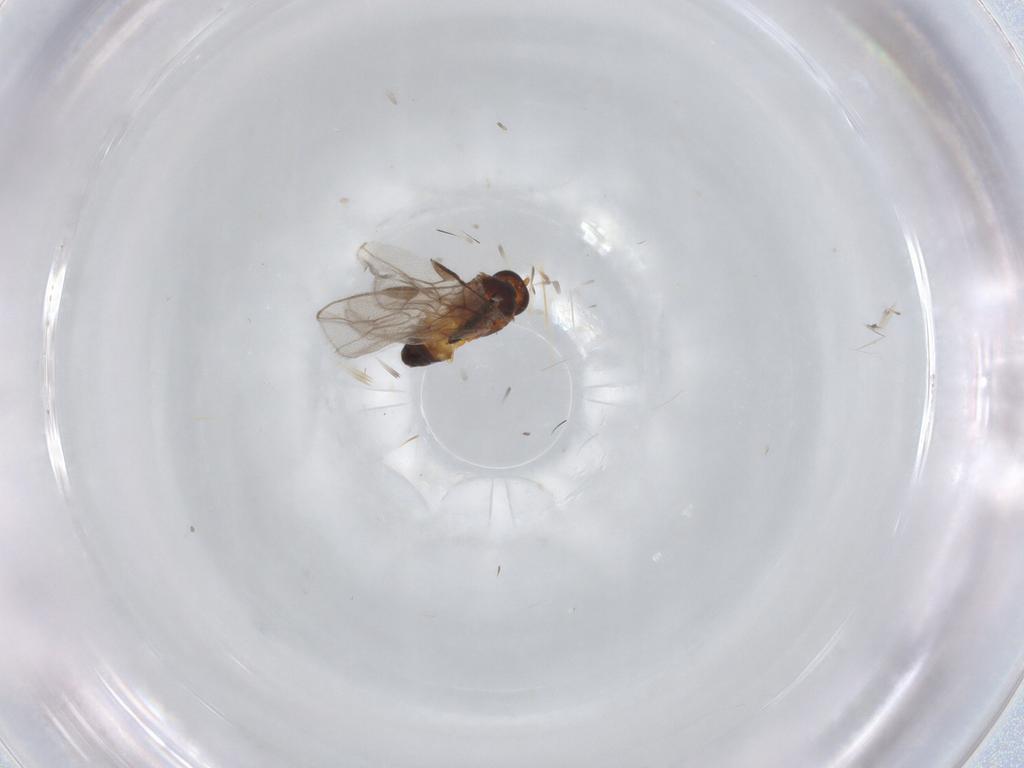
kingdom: Animalia
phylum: Arthropoda
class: Insecta
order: Hymenoptera
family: Braconidae
